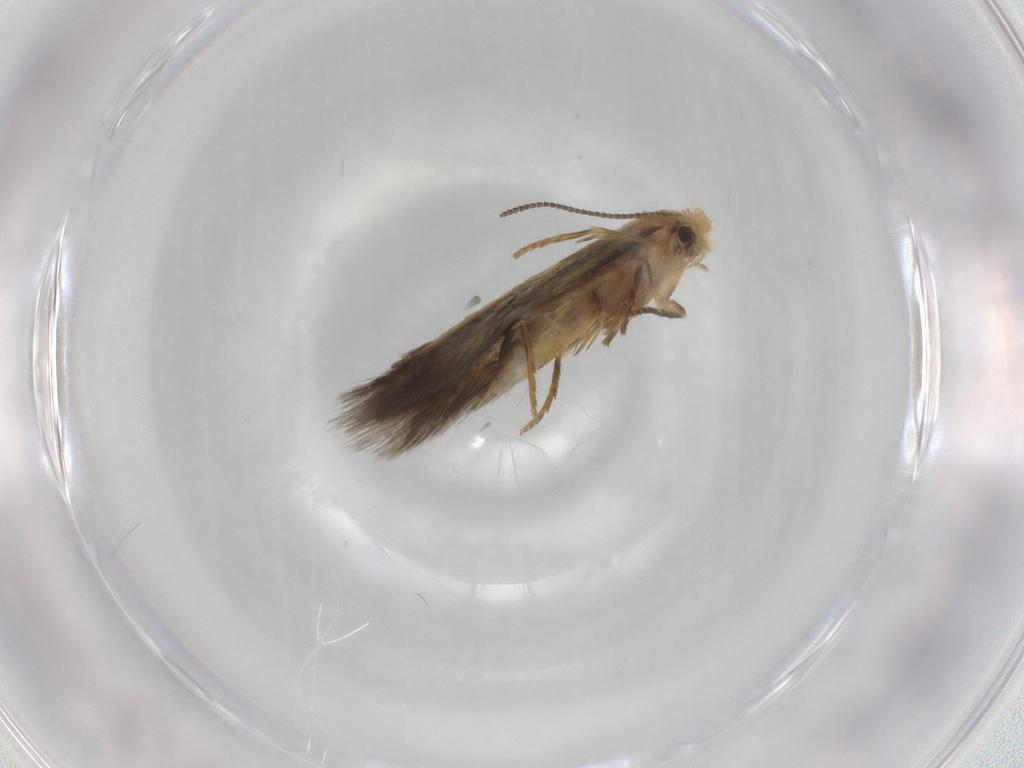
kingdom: Animalia
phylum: Arthropoda
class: Insecta
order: Lepidoptera
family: Nepticulidae
